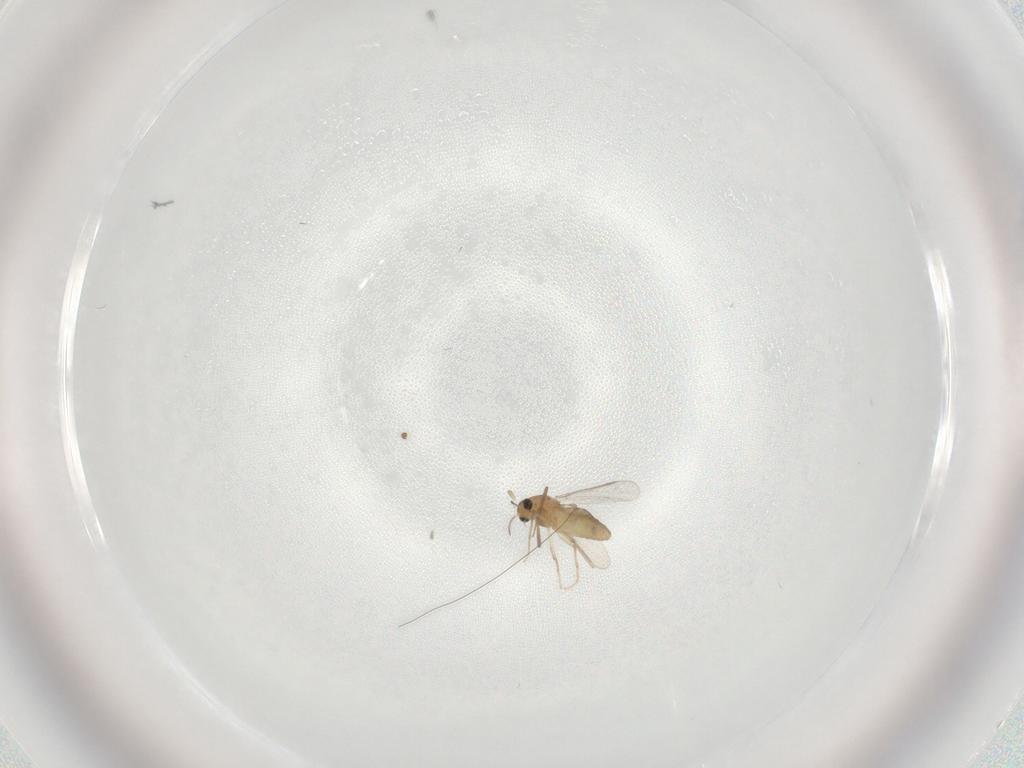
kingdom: Animalia
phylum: Arthropoda
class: Insecta
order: Diptera
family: Chironomidae
